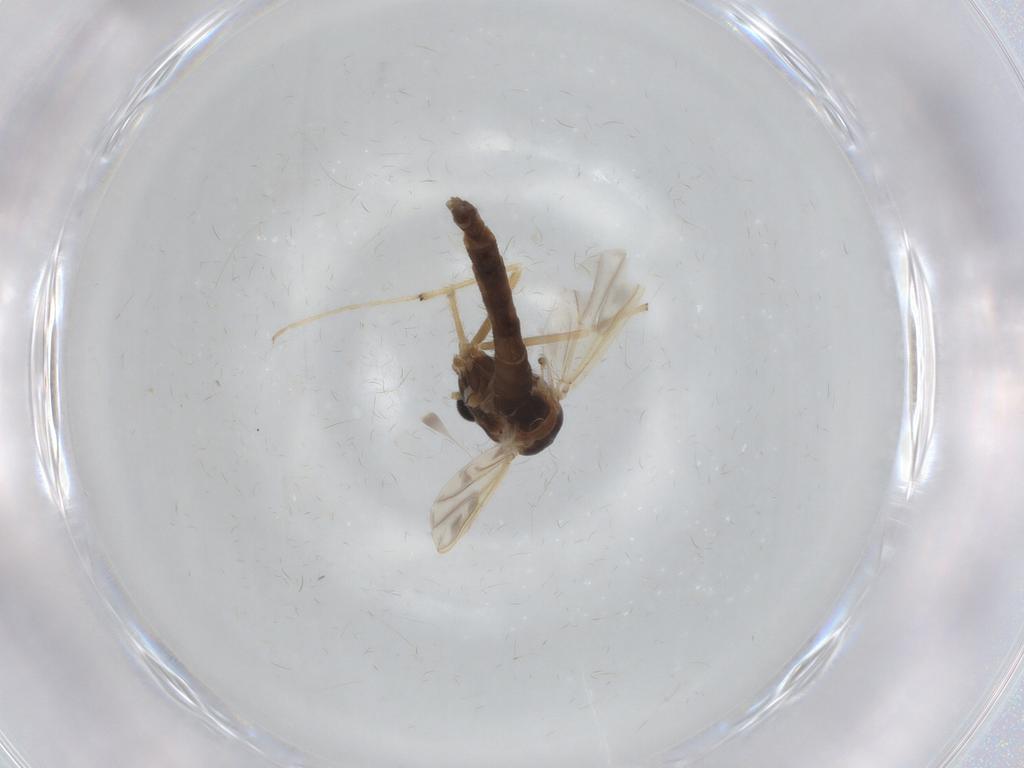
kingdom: Animalia
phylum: Arthropoda
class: Insecta
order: Diptera
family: Chironomidae
